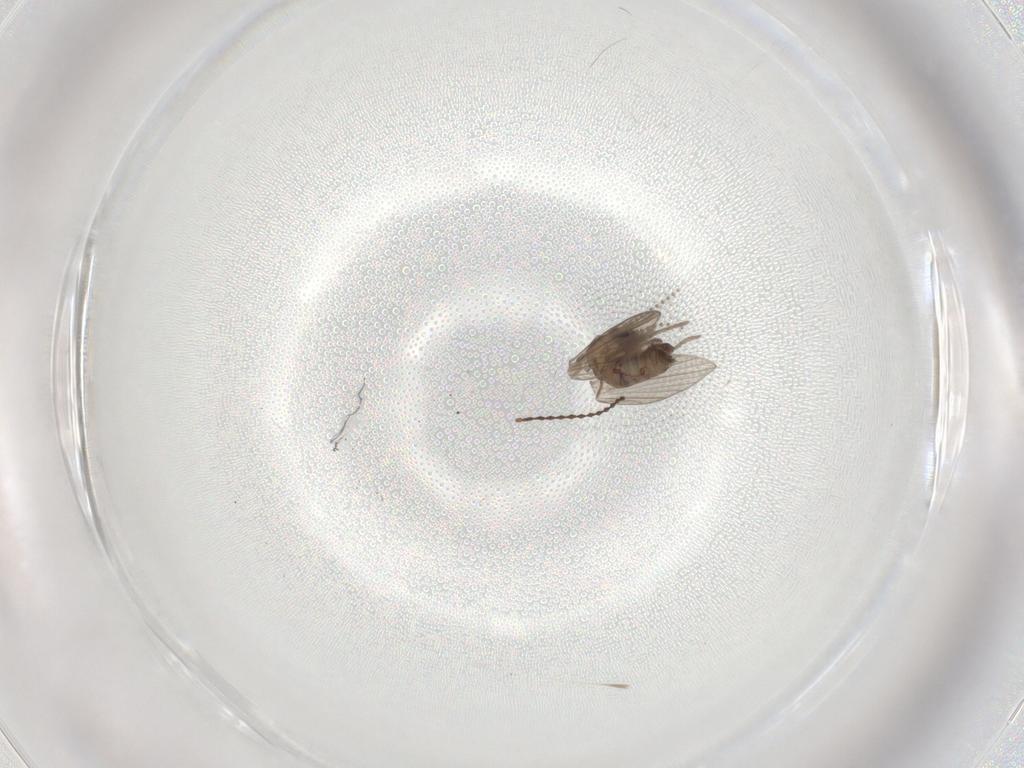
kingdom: Animalia
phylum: Arthropoda
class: Insecta
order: Diptera
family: Psychodidae
